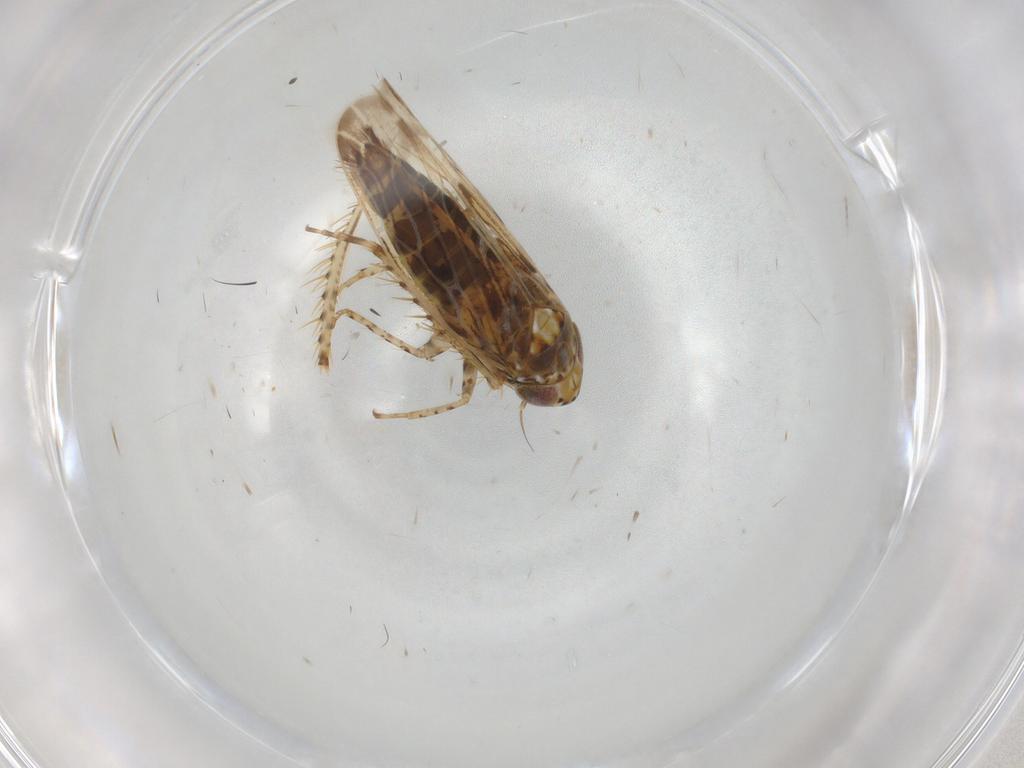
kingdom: Animalia
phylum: Arthropoda
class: Insecta
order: Hemiptera
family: Cicadellidae
